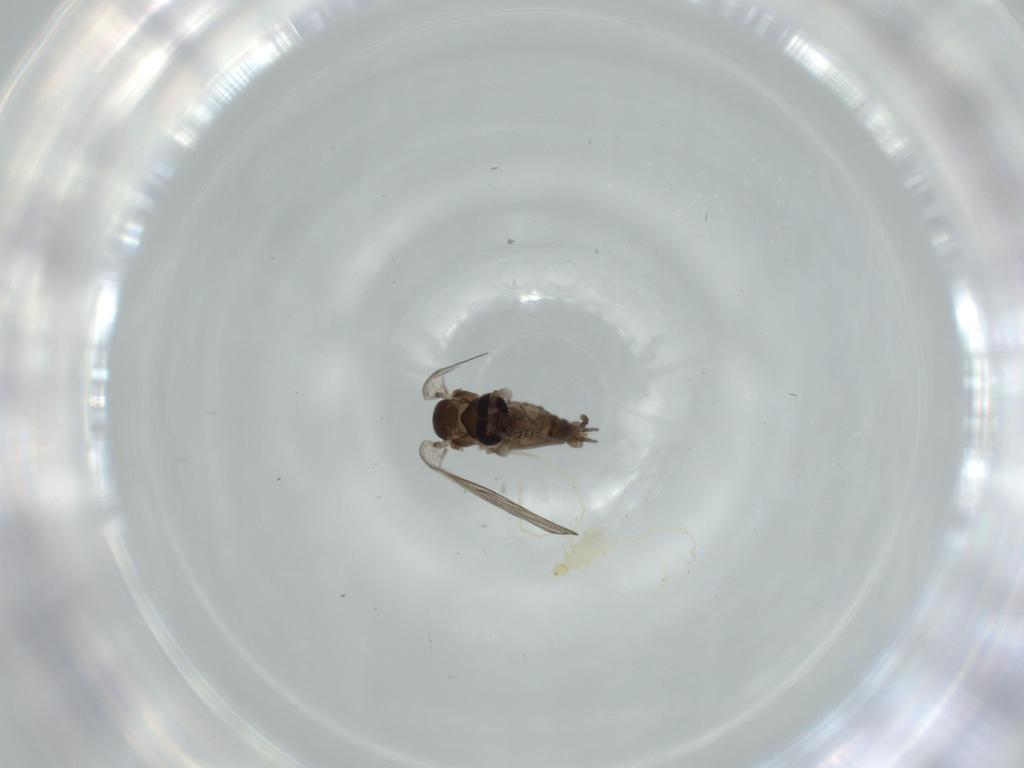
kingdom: Animalia
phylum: Arthropoda
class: Insecta
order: Diptera
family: Psychodidae
